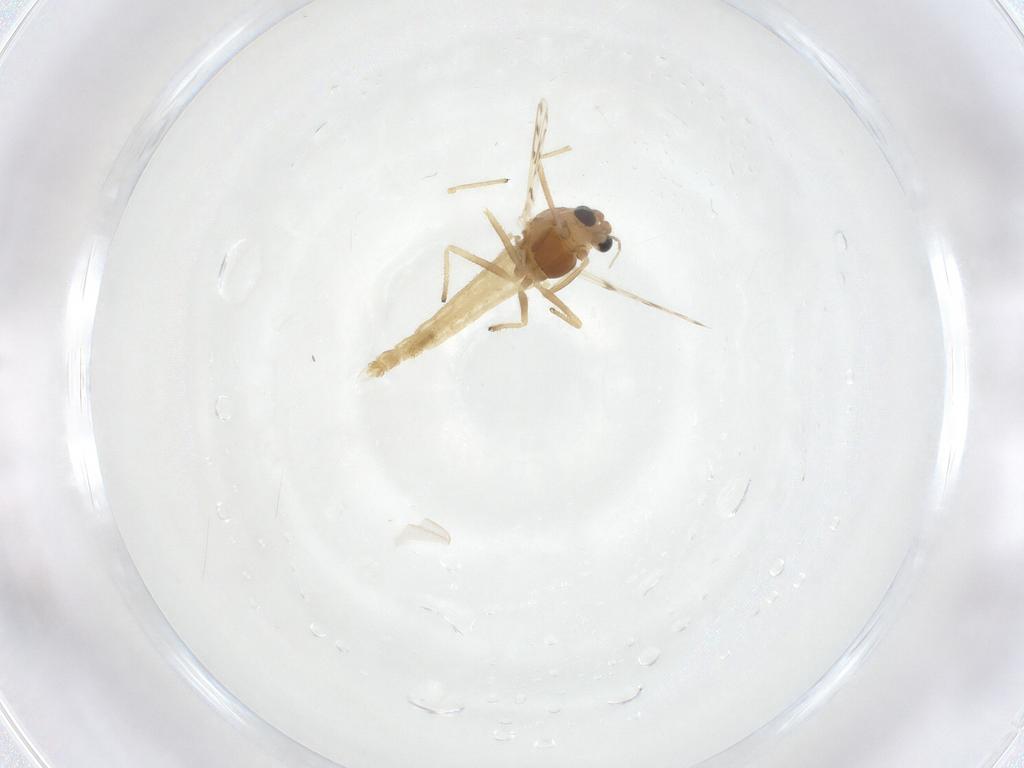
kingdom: Animalia
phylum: Arthropoda
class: Insecta
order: Diptera
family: Chironomidae
